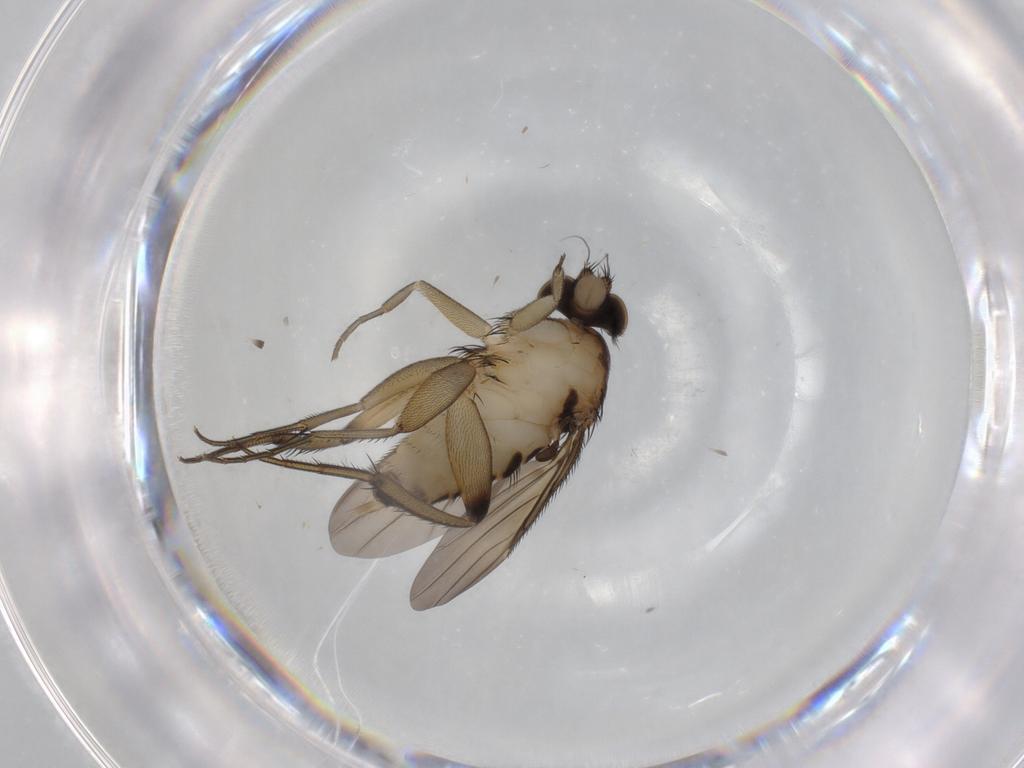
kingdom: Animalia
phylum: Arthropoda
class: Insecta
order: Diptera
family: Phoridae
